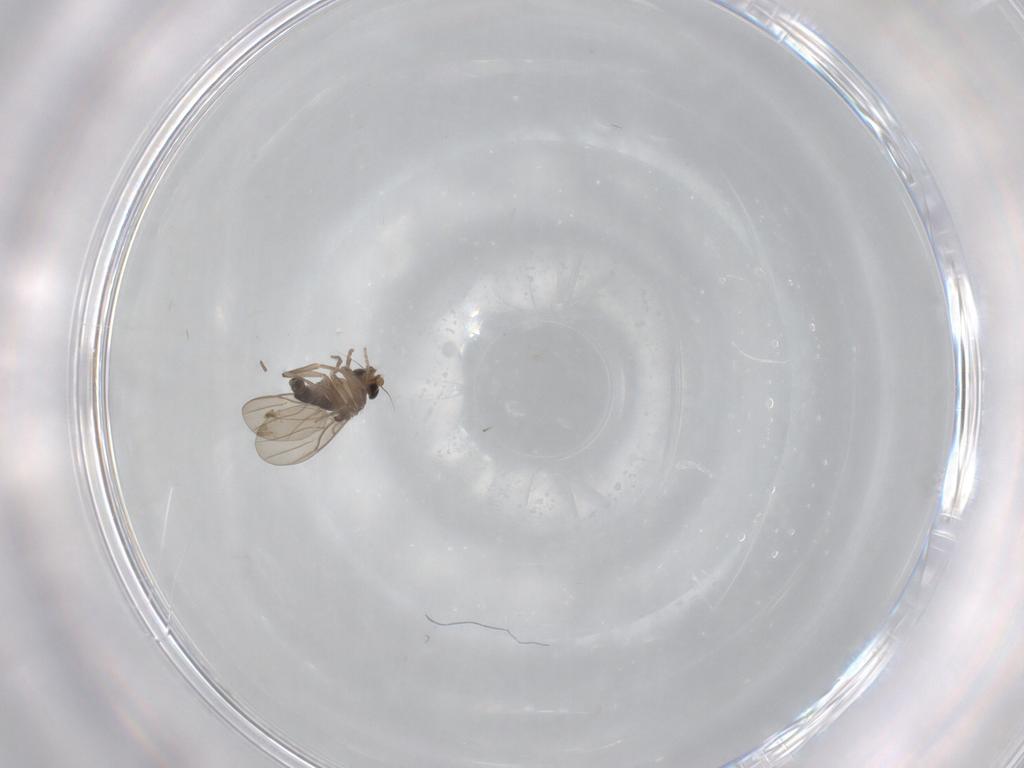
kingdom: Animalia
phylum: Arthropoda
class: Insecta
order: Diptera
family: Phoridae
